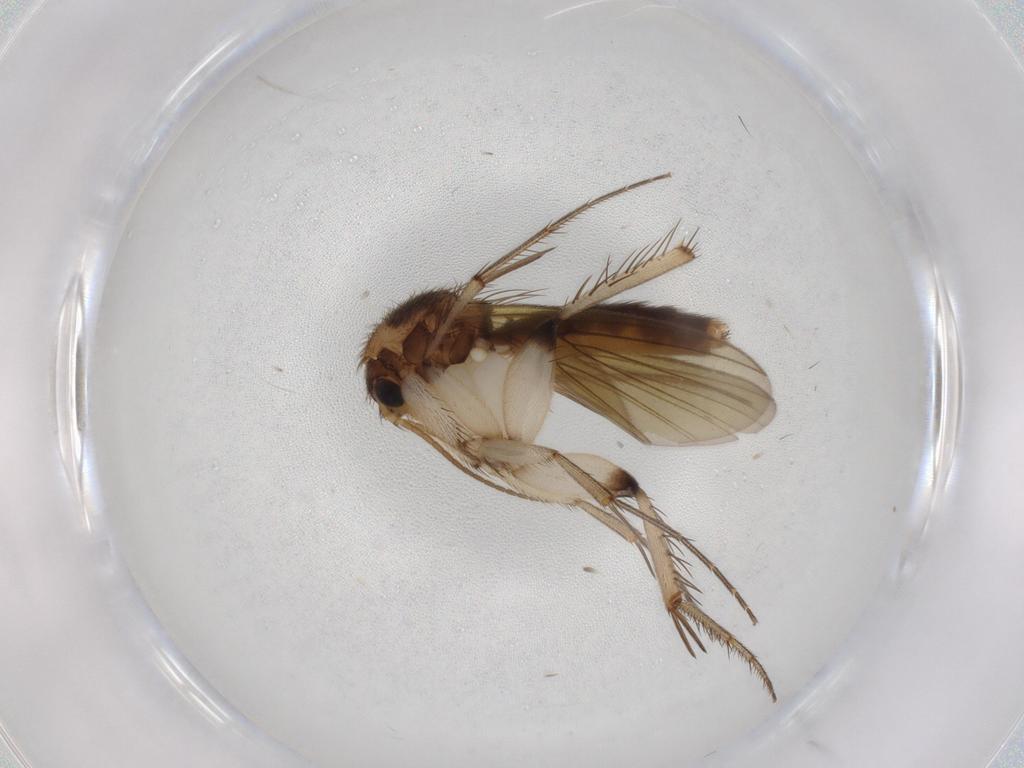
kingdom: Animalia
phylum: Arthropoda
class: Insecta
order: Diptera
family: Mycetophilidae
